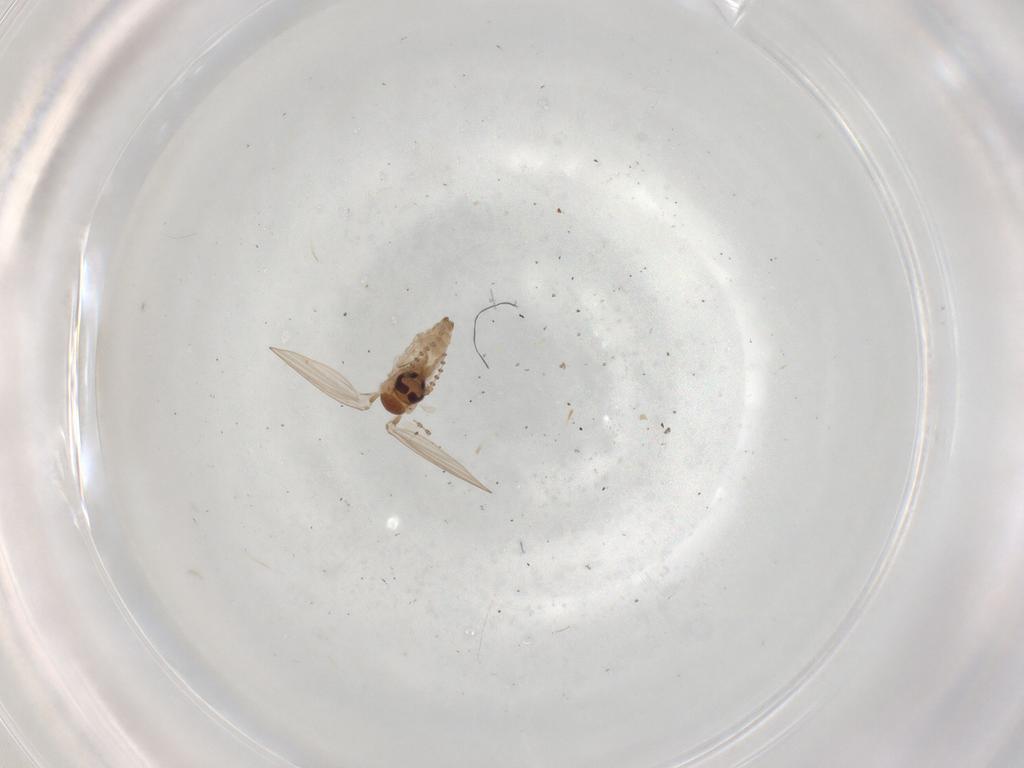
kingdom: Animalia
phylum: Arthropoda
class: Insecta
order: Diptera
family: Psychodidae
